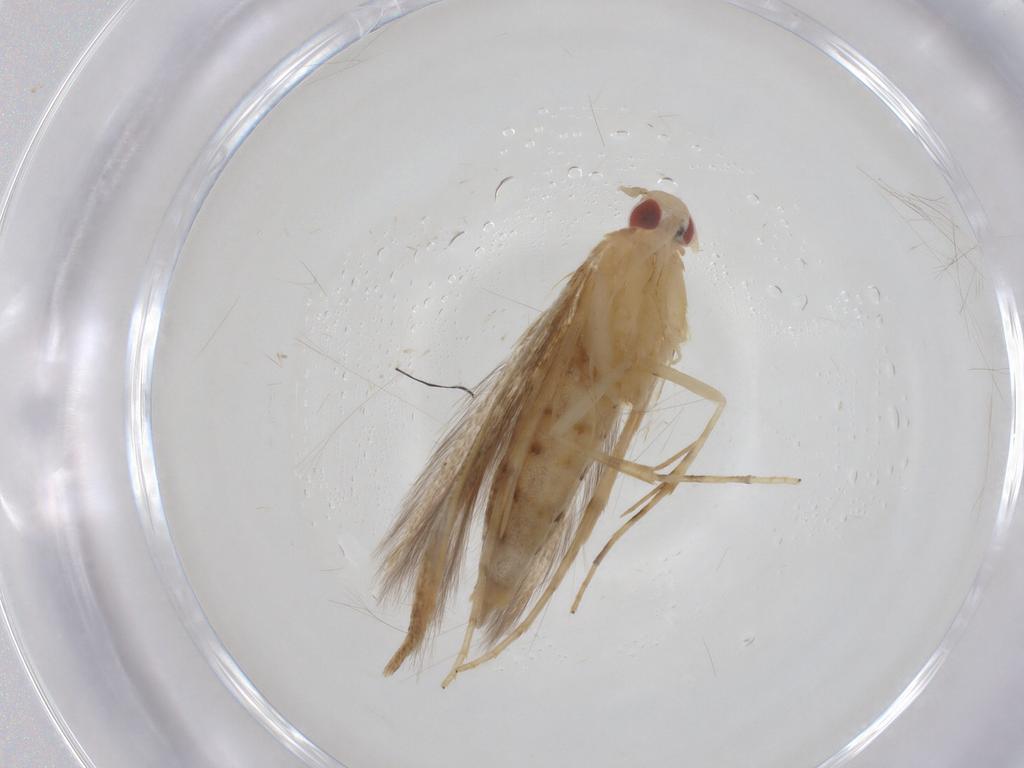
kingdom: Animalia
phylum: Arthropoda
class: Insecta
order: Lepidoptera
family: Cosmopterigidae
